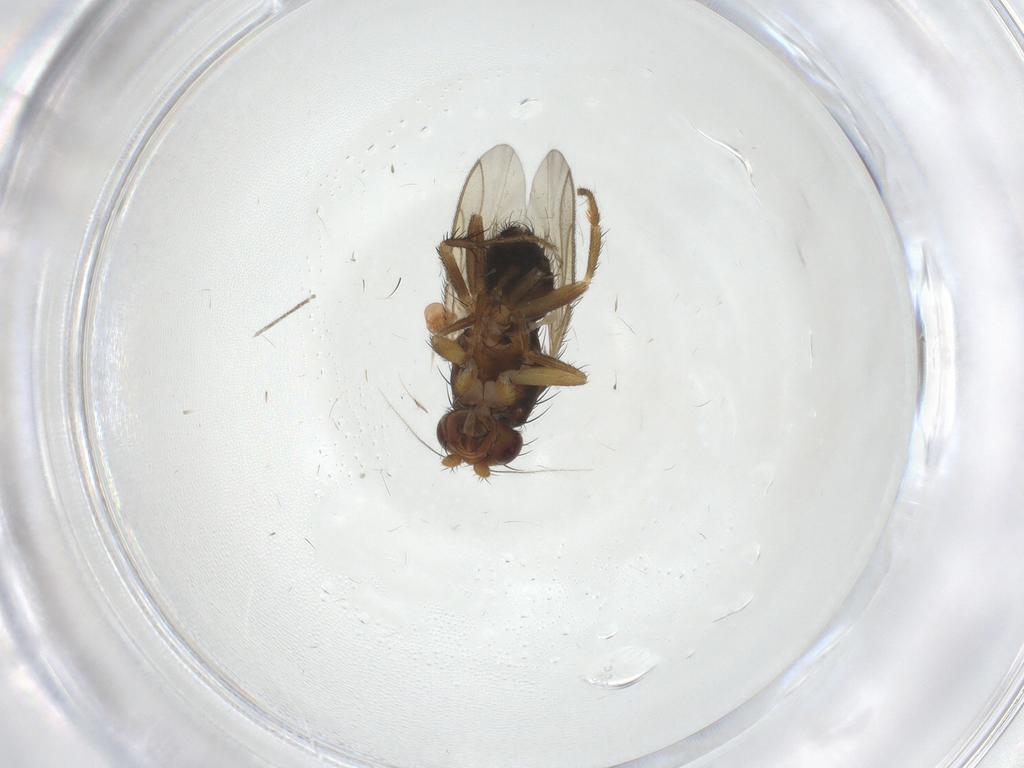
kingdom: Animalia
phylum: Arthropoda
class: Insecta
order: Diptera
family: Sphaeroceridae
